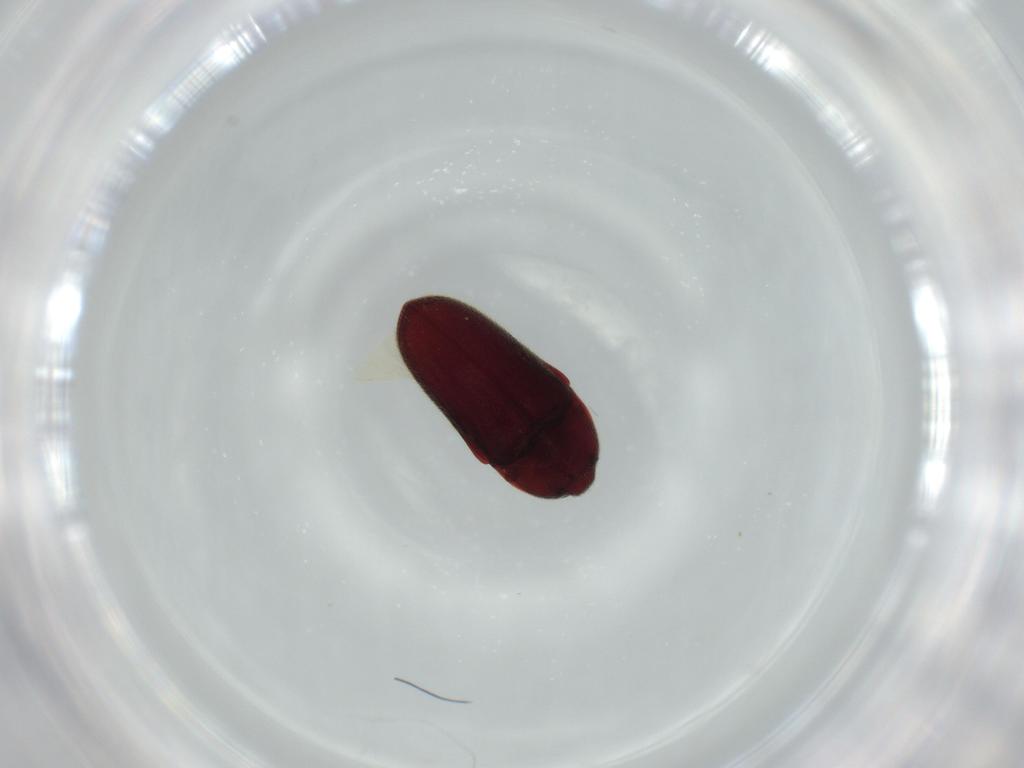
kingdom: Animalia
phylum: Arthropoda
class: Insecta
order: Coleoptera
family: Throscidae
